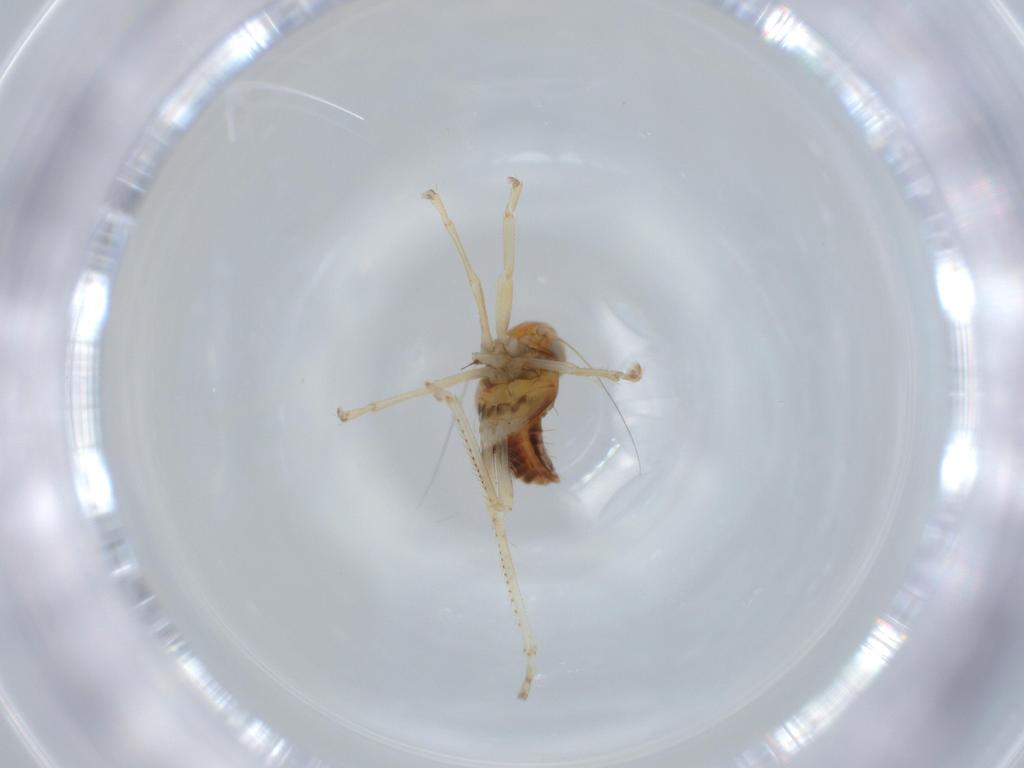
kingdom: Animalia
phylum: Arthropoda
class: Insecta
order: Hemiptera
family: Cicadellidae
